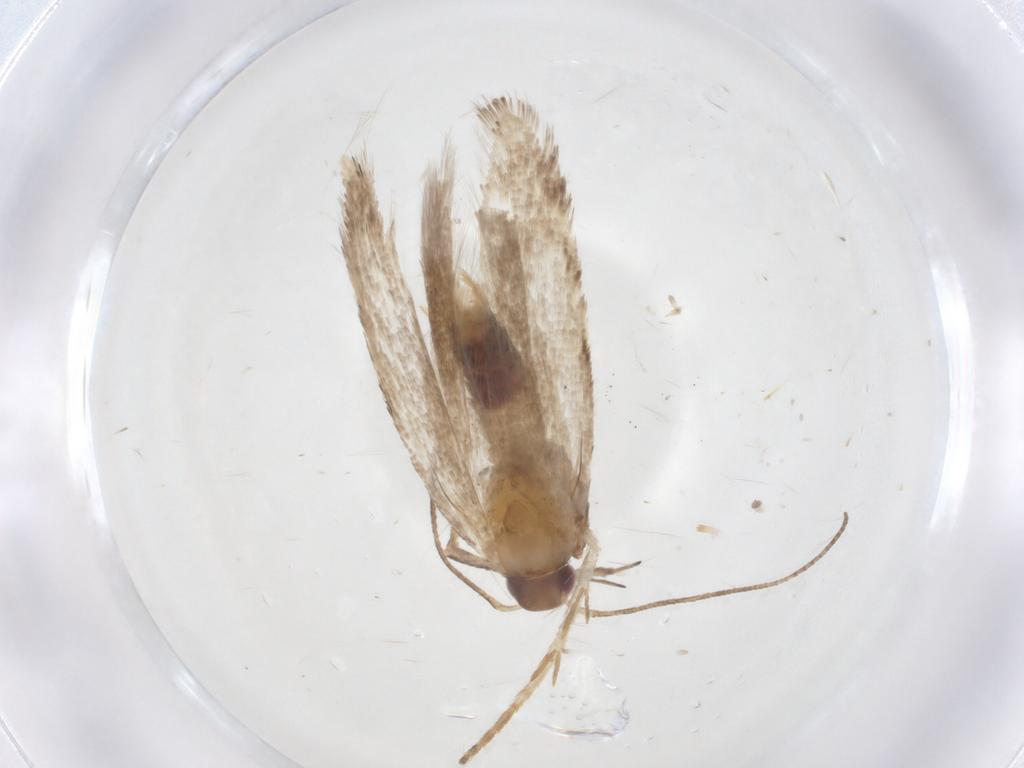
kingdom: Animalia
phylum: Arthropoda
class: Insecta
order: Lepidoptera
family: Gelechiidae
